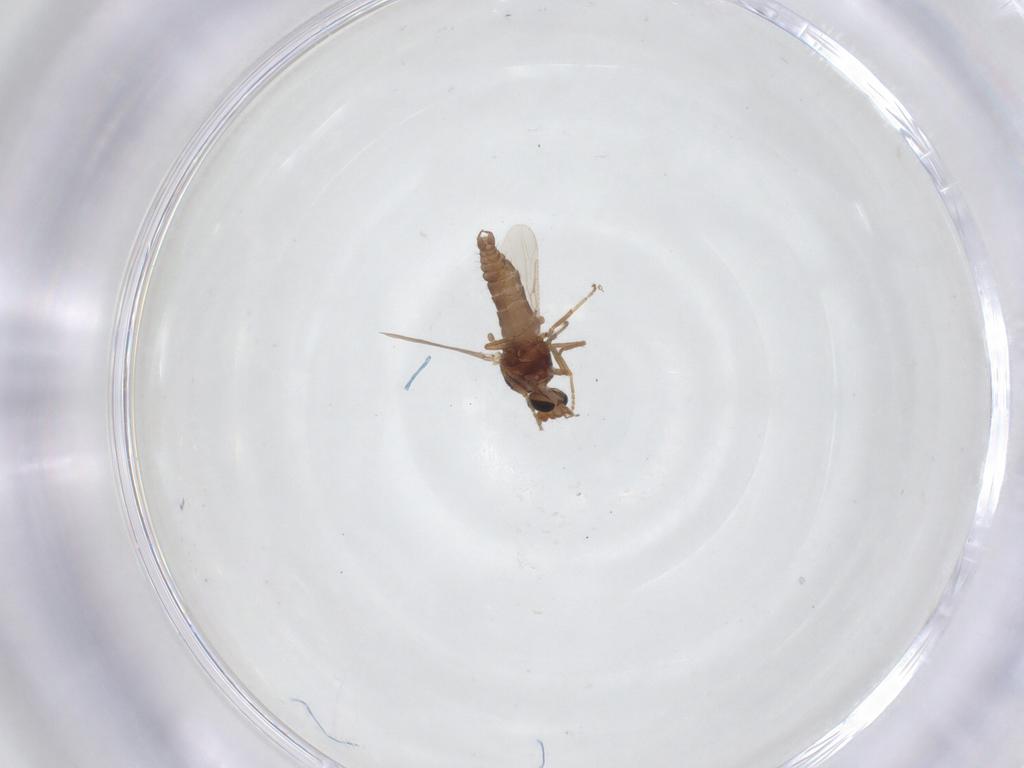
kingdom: Animalia
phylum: Arthropoda
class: Insecta
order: Diptera
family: Ceratopogonidae
